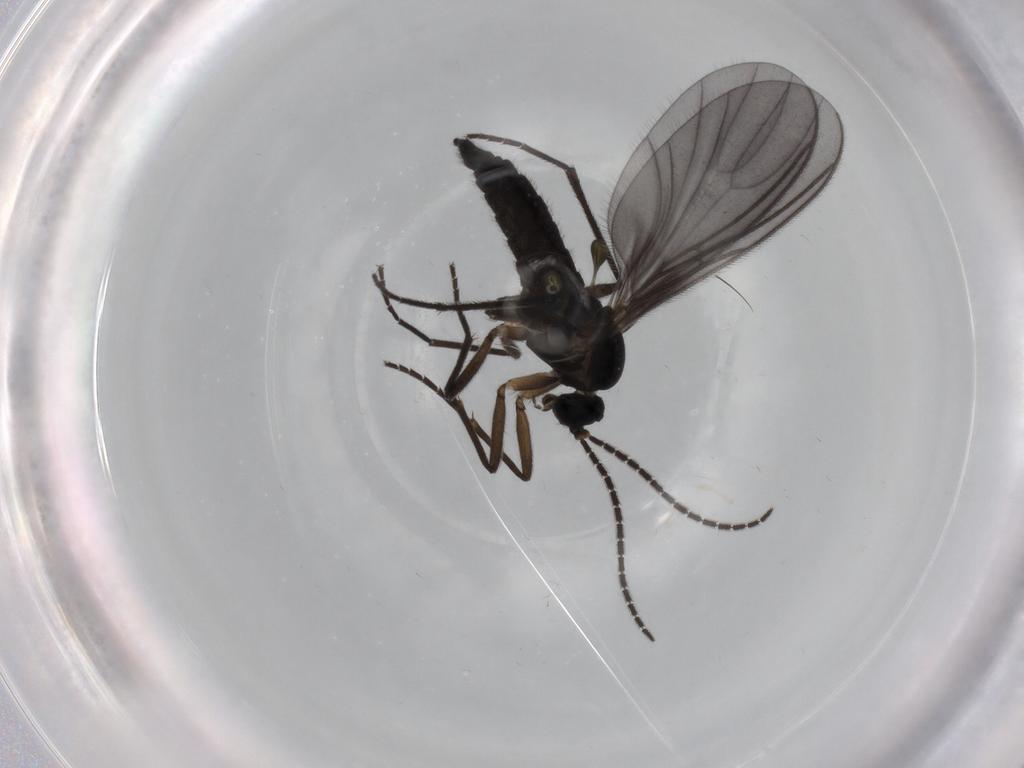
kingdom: Animalia
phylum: Arthropoda
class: Insecta
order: Diptera
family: Sciaridae
